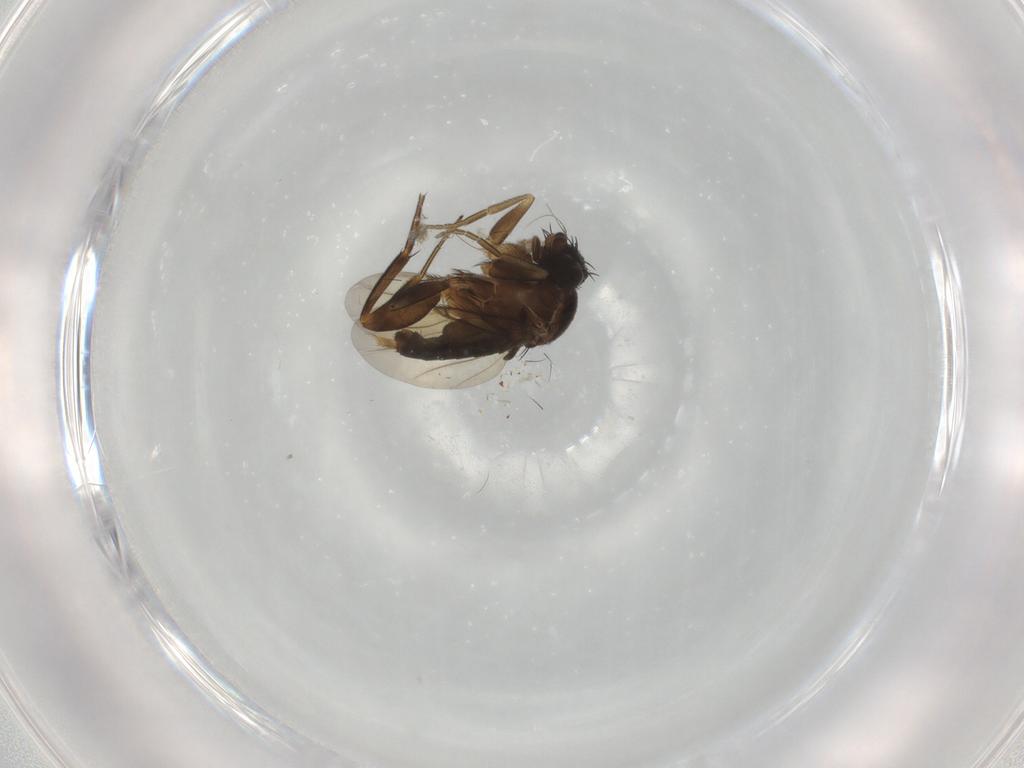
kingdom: Animalia
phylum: Arthropoda
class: Insecta
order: Diptera
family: Phoridae
